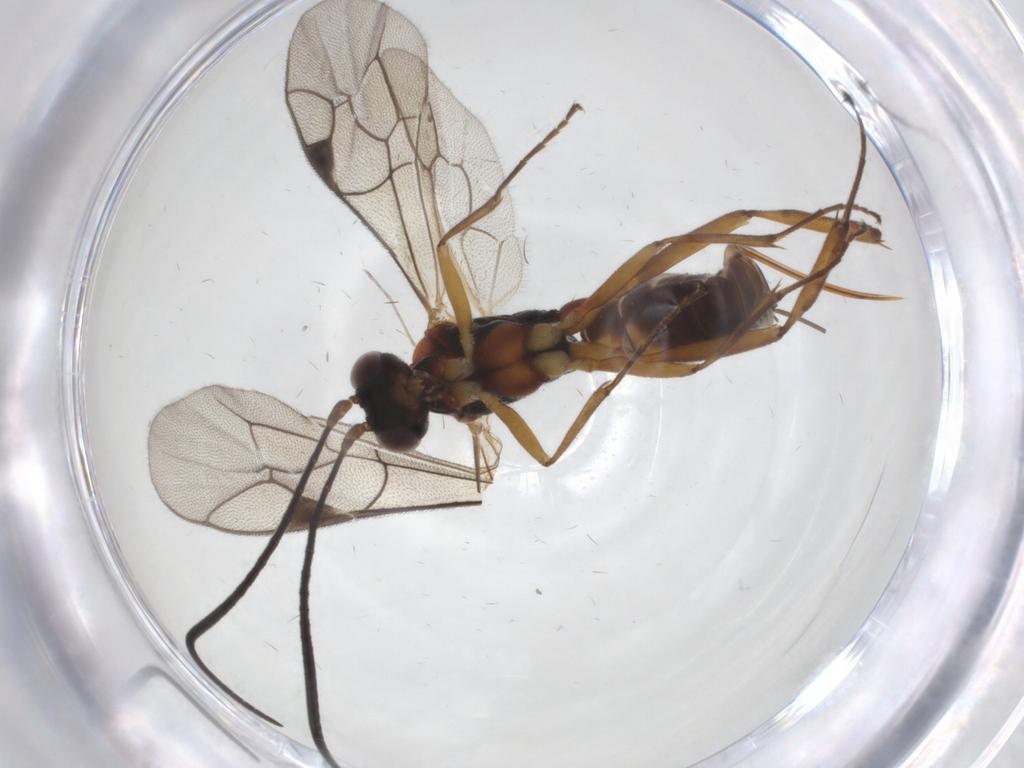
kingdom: Animalia
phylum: Arthropoda
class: Insecta
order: Hymenoptera
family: Ichneumonidae
